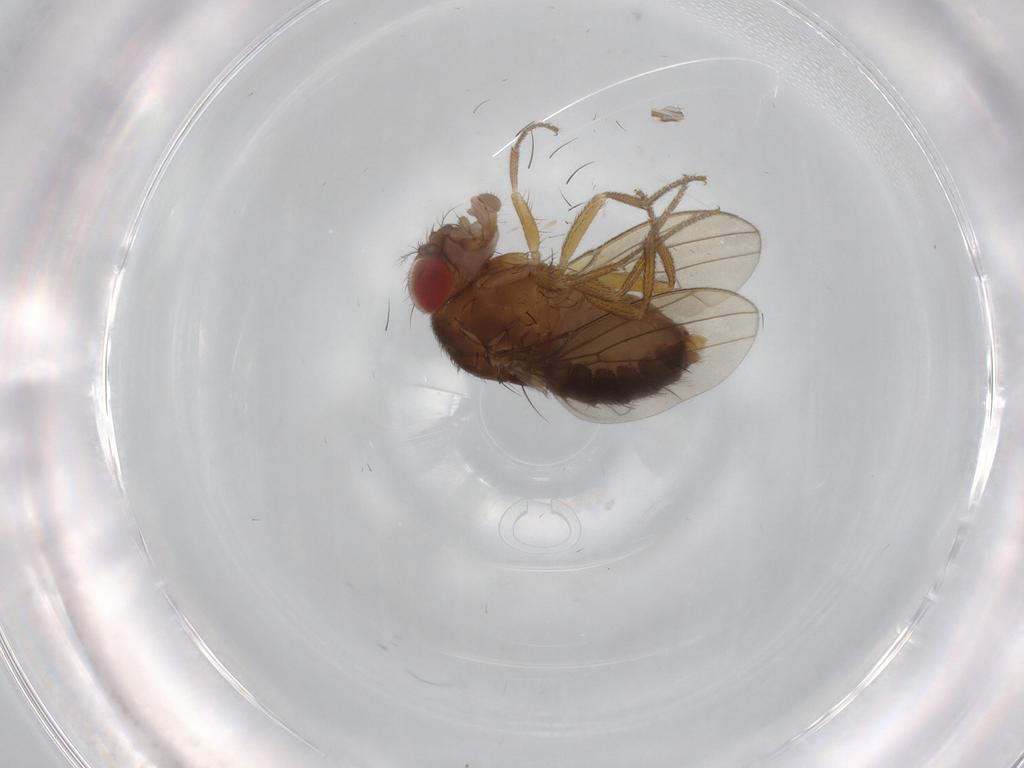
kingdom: Animalia
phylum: Arthropoda
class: Insecta
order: Diptera
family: Drosophilidae
